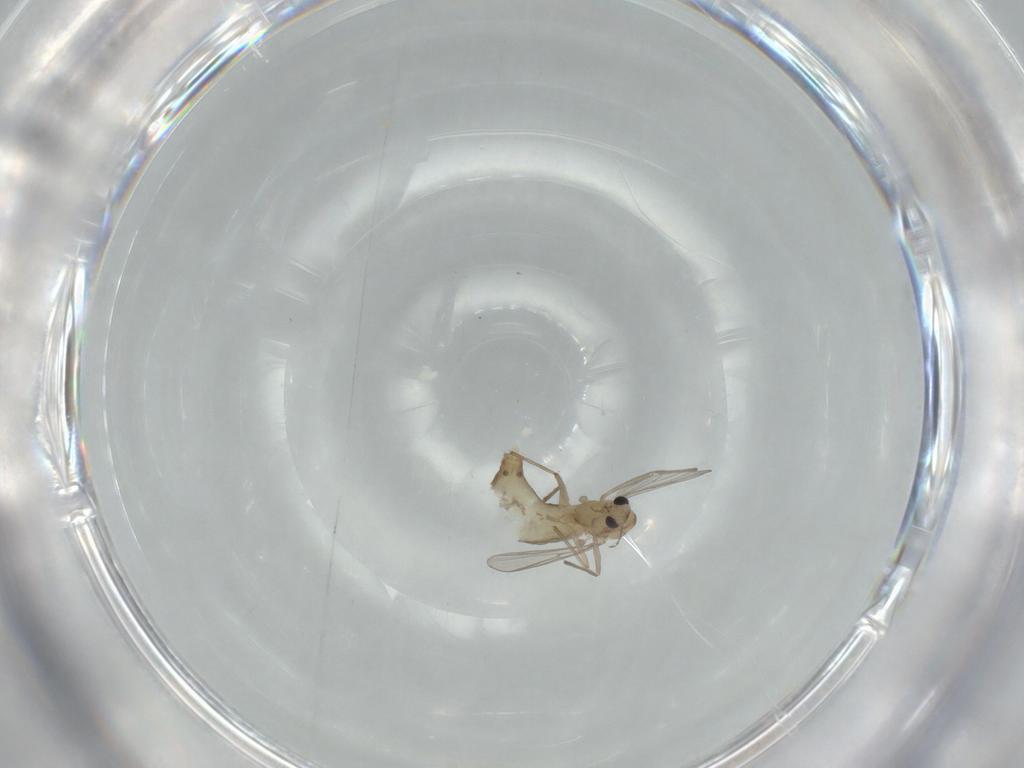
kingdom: Animalia
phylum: Arthropoda
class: Insecta
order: Diptera
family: Chironomidae
